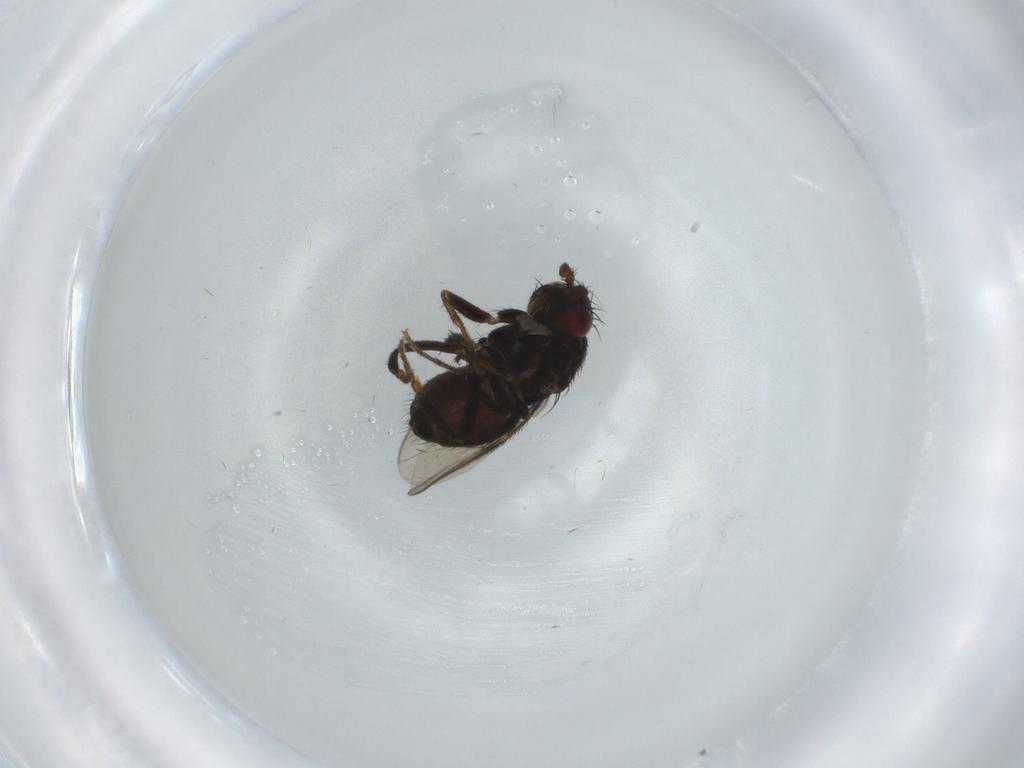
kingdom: Animalia
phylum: Arthropoda
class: Insecta
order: Diptera
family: Sphaeroceridae
